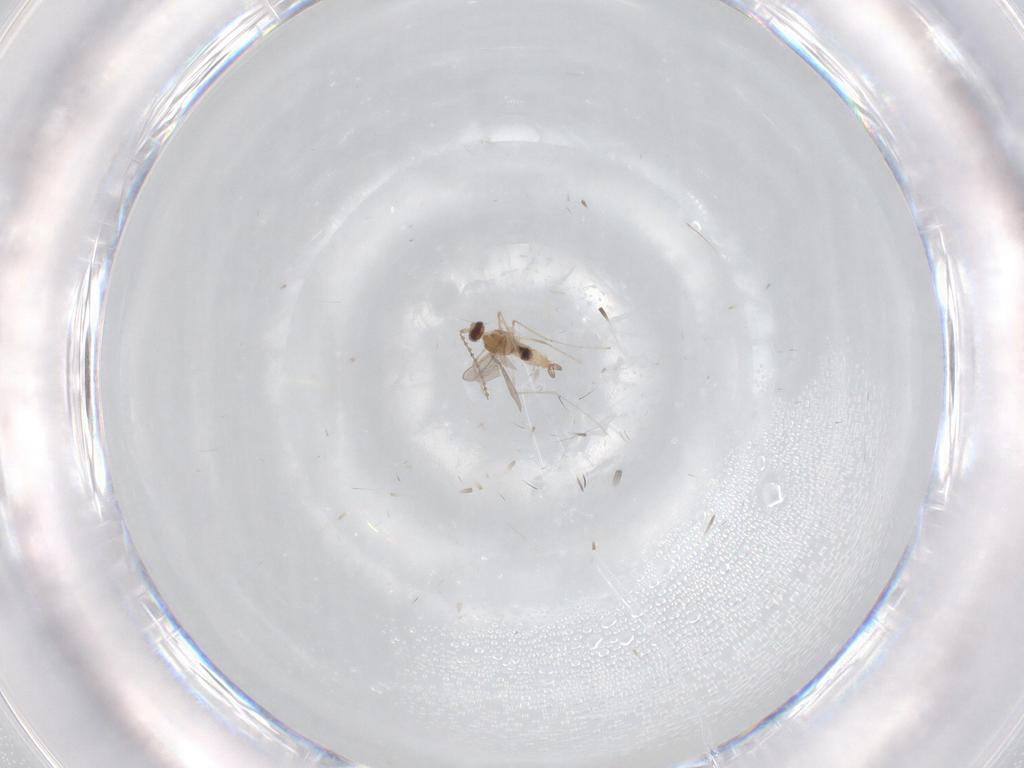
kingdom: Animalia
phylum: Arthropoda
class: Insecta
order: Diptera
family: Cecidomyiidae
